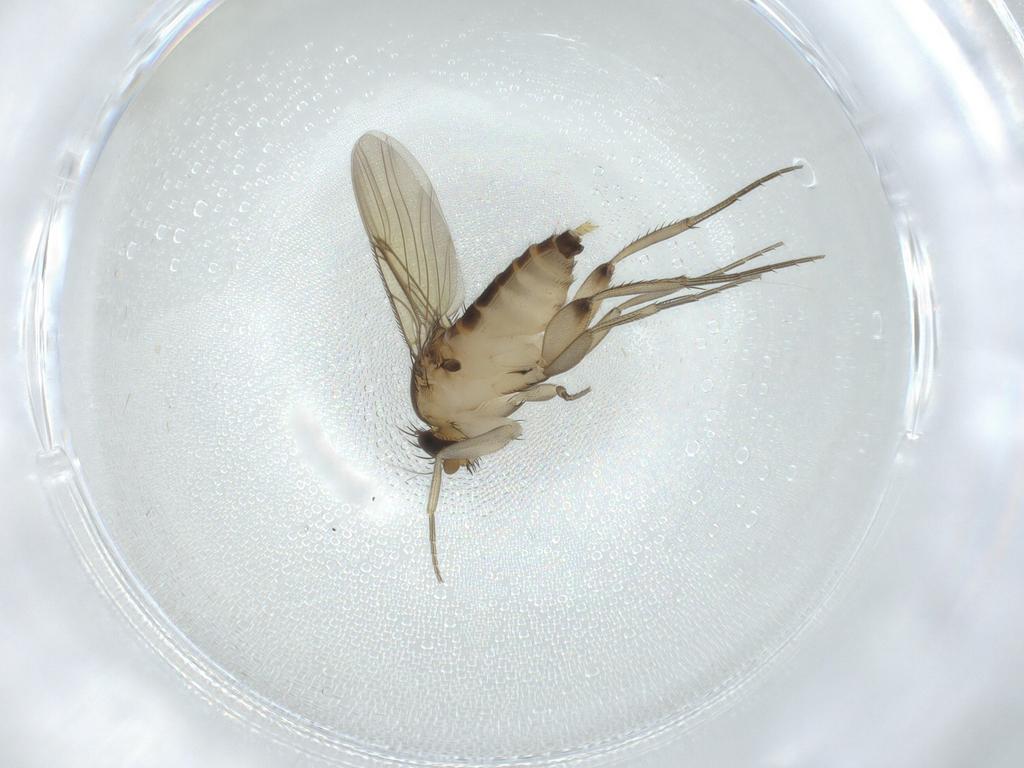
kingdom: Animalia
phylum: Arthropoda
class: Insecta
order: Diptera
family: Phoridae
